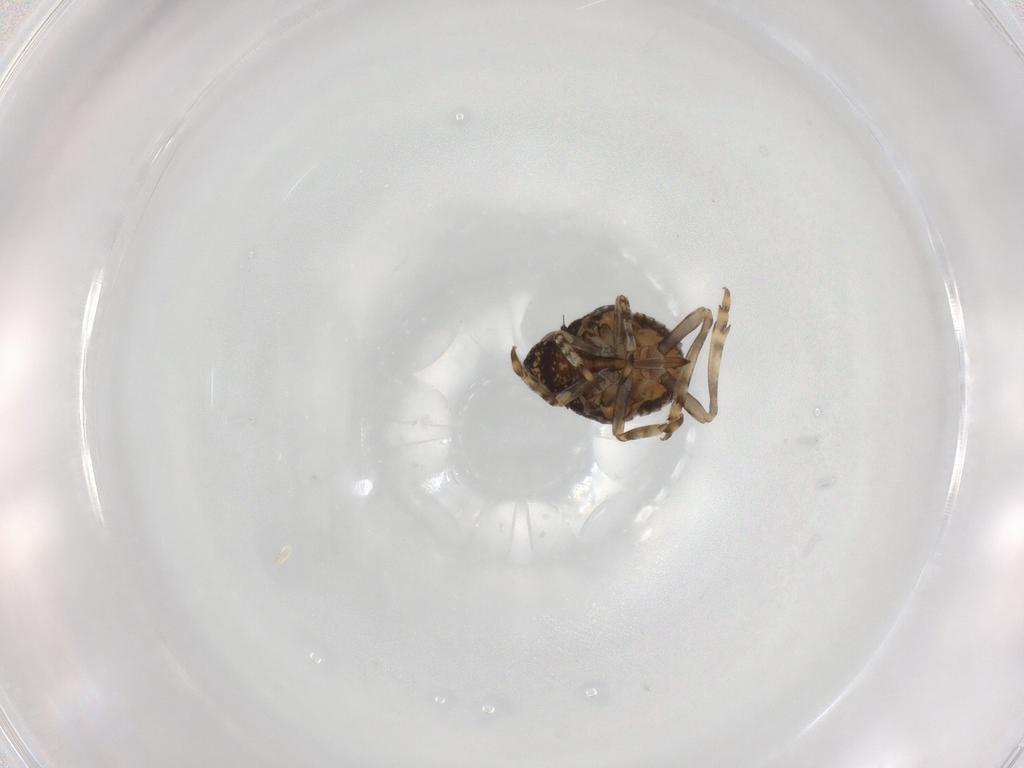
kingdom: Animalia
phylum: Arthropoda
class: Insecta
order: Hemiptera
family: Nogodinidae
